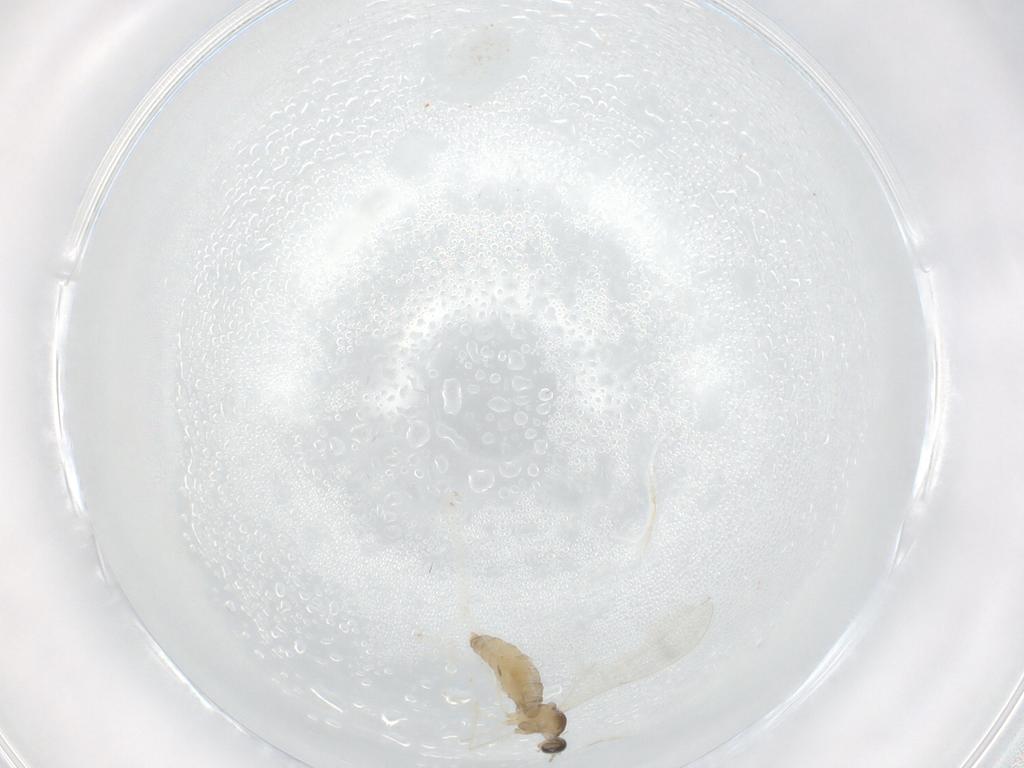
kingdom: Animalia
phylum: Arthropoda
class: Insecta
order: Diptera
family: Cecidomyiidae
